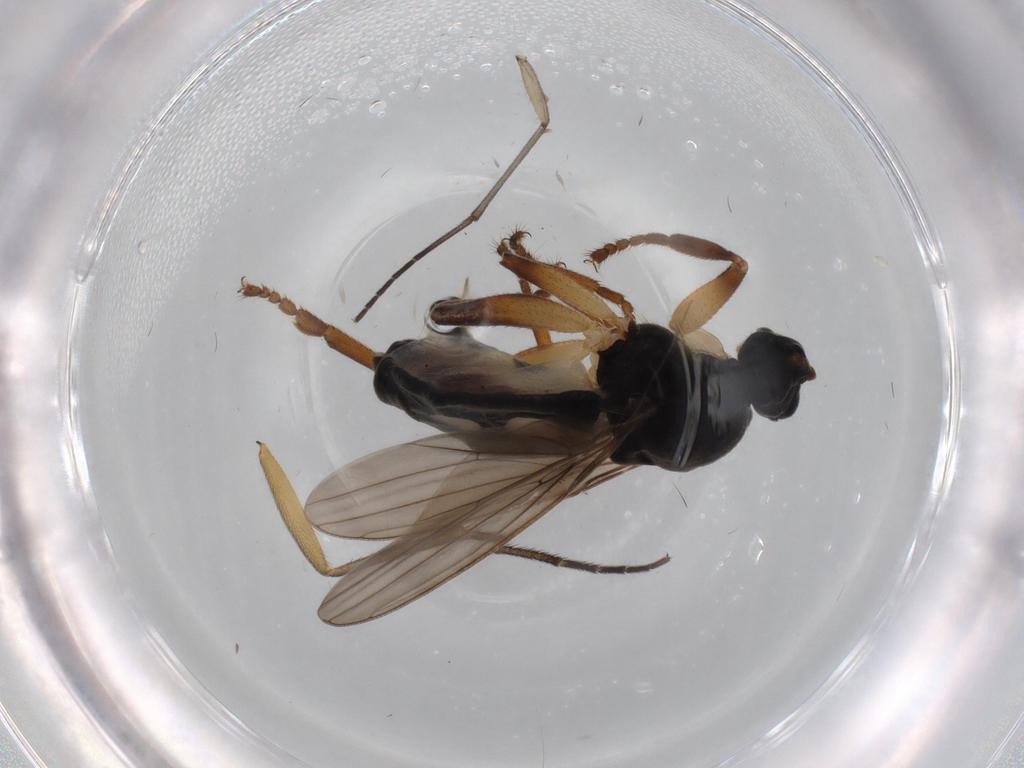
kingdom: Animalia
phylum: Arthropoda
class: Insecta
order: Diptera
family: Sphaeroceridae
